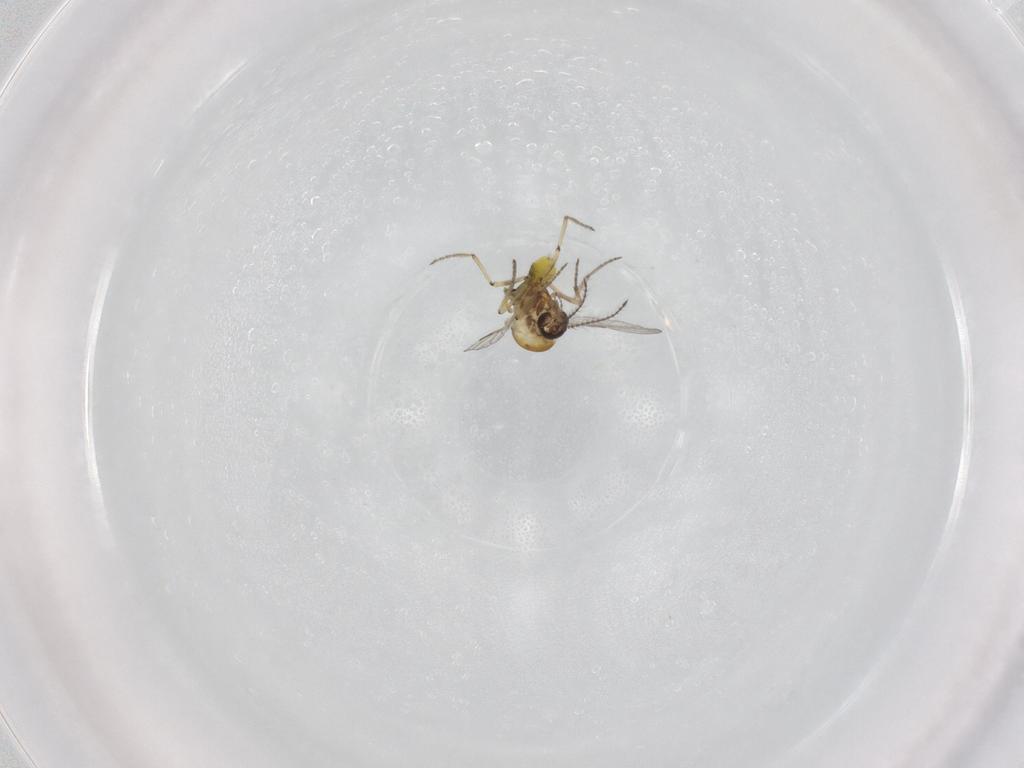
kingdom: Animalia
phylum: Arthropoda
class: Insecta
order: Diptera
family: Ceratopogonidae
